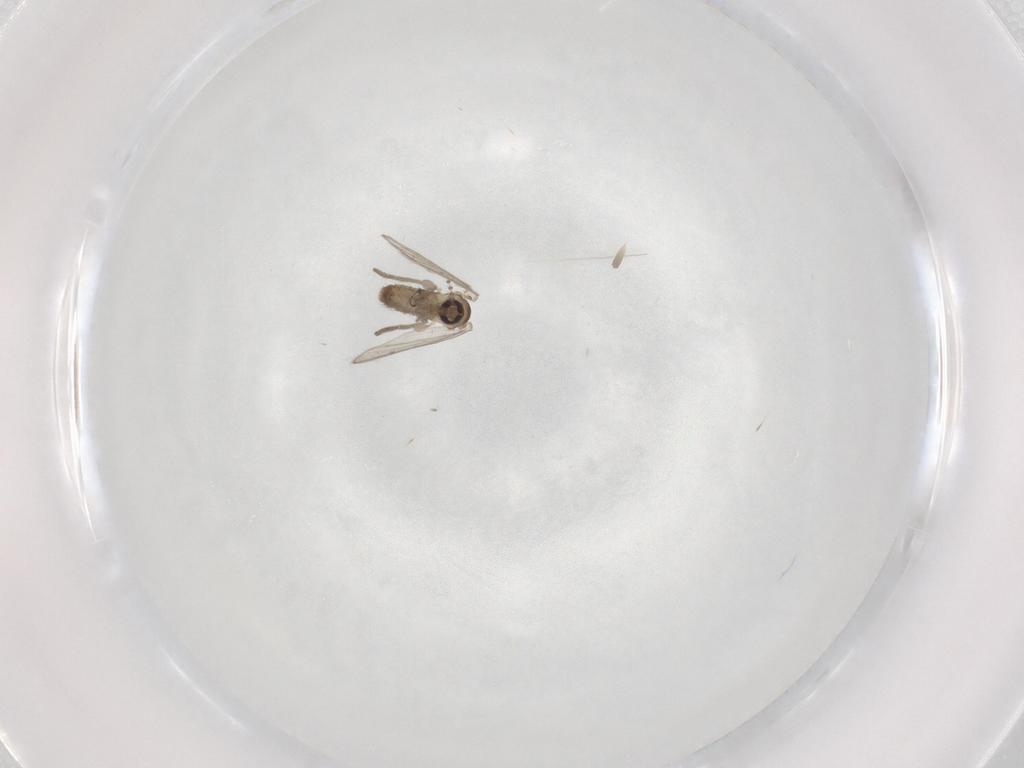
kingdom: Animalia
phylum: Arthropoda
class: Insecta
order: Diptera
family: Psychodidae
